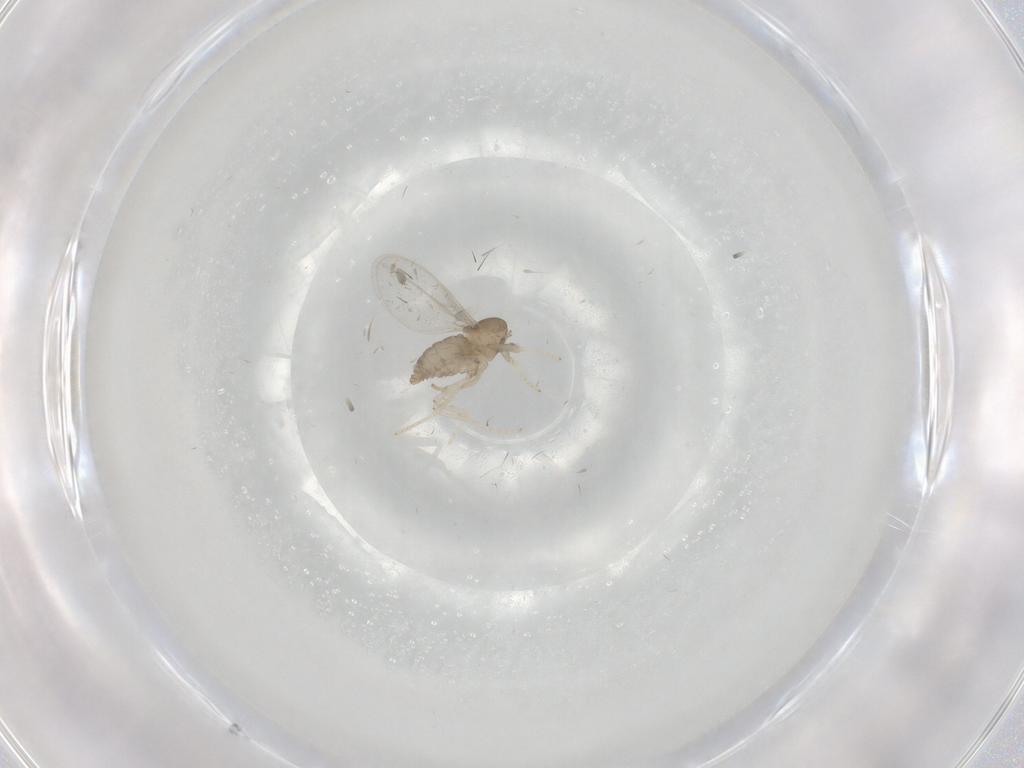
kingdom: Animalia
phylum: Arthropoda
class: Insecta
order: Diptera
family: Cecidomyiidae
